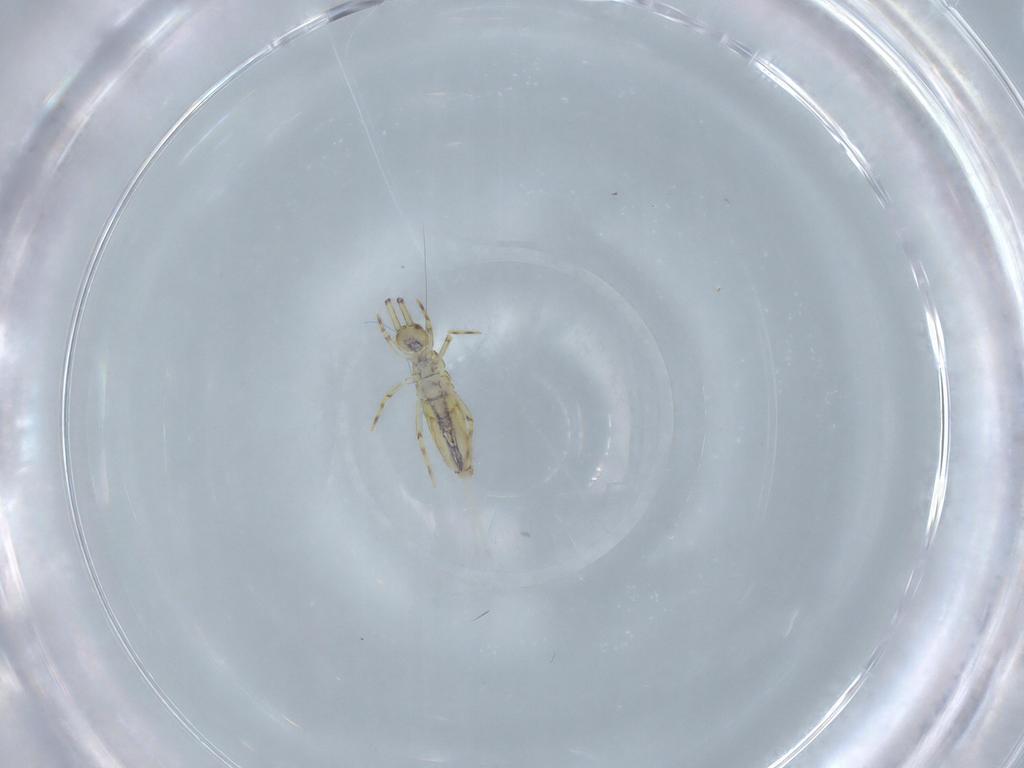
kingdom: Animalia
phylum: Arthropoda
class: Collembola
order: Entomobryomorpha
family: Paronellidae
